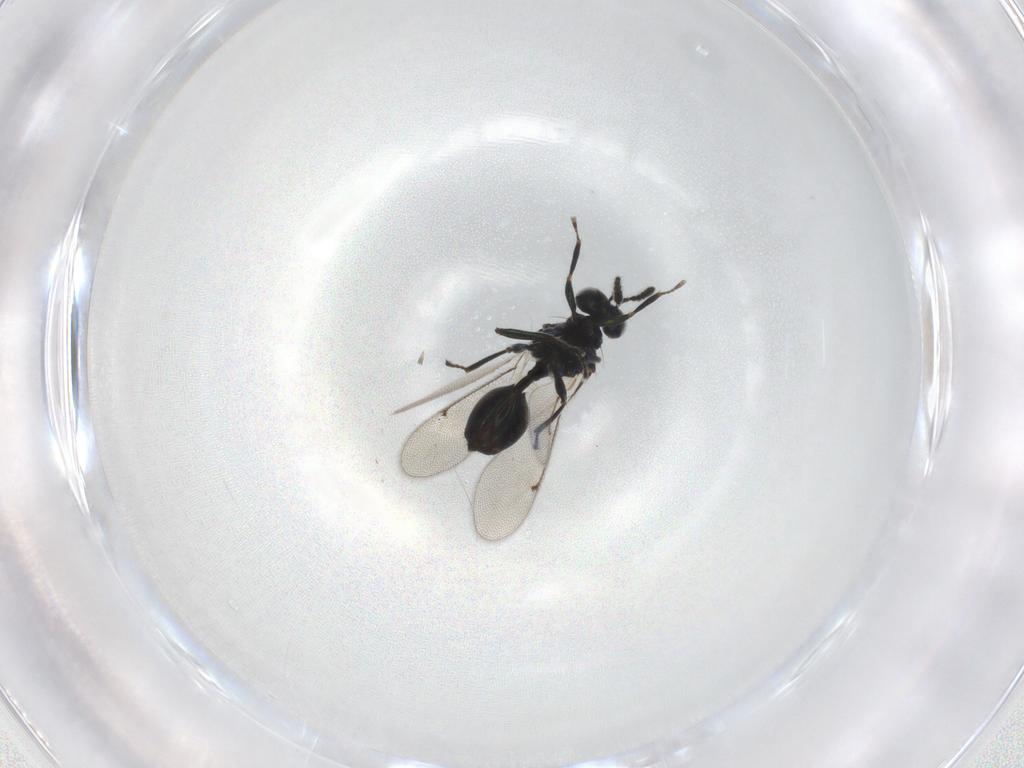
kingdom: Animalia
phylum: Arthropoda
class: Insecta
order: Hymenoptera
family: Eulophidae
